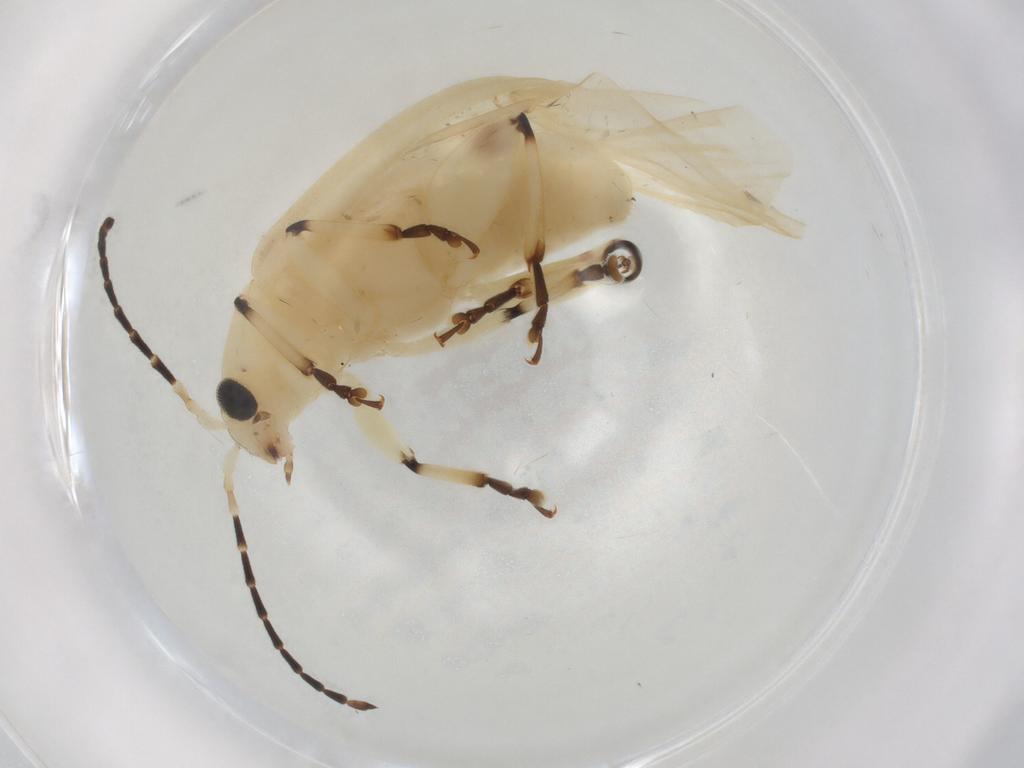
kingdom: Animalia
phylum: Arthropoda
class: Insecta
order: Coleoptera
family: Chrysomelidae
